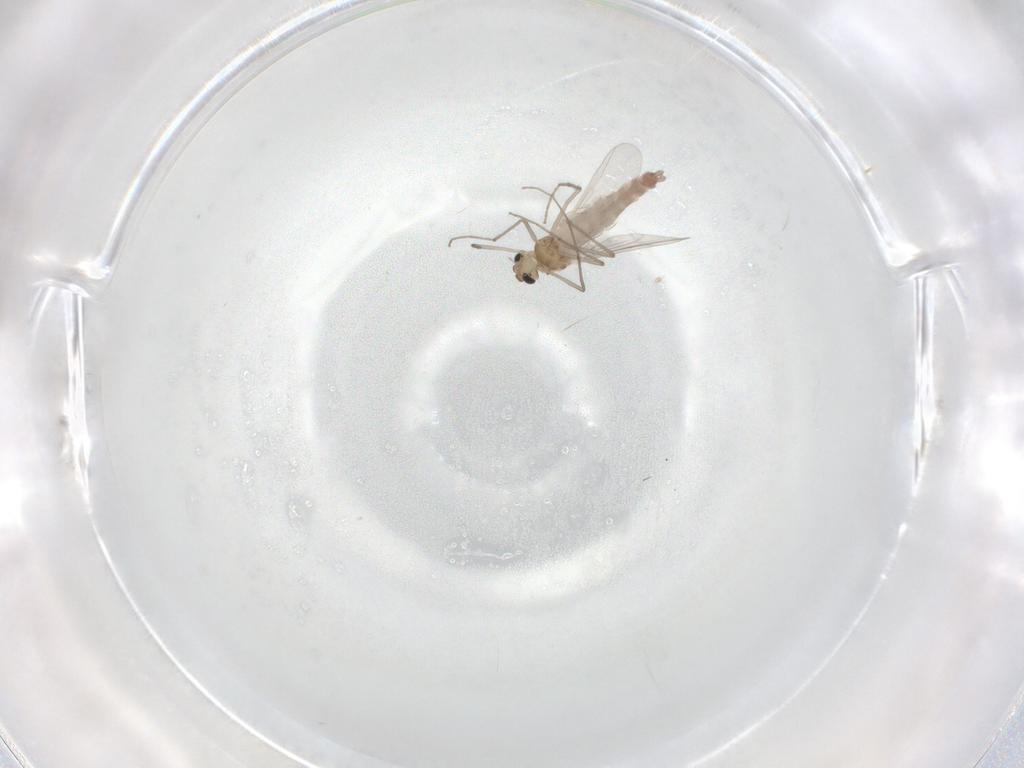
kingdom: Animalia
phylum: Arthropoda
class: Insecta
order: Diptera
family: Psychodidae
